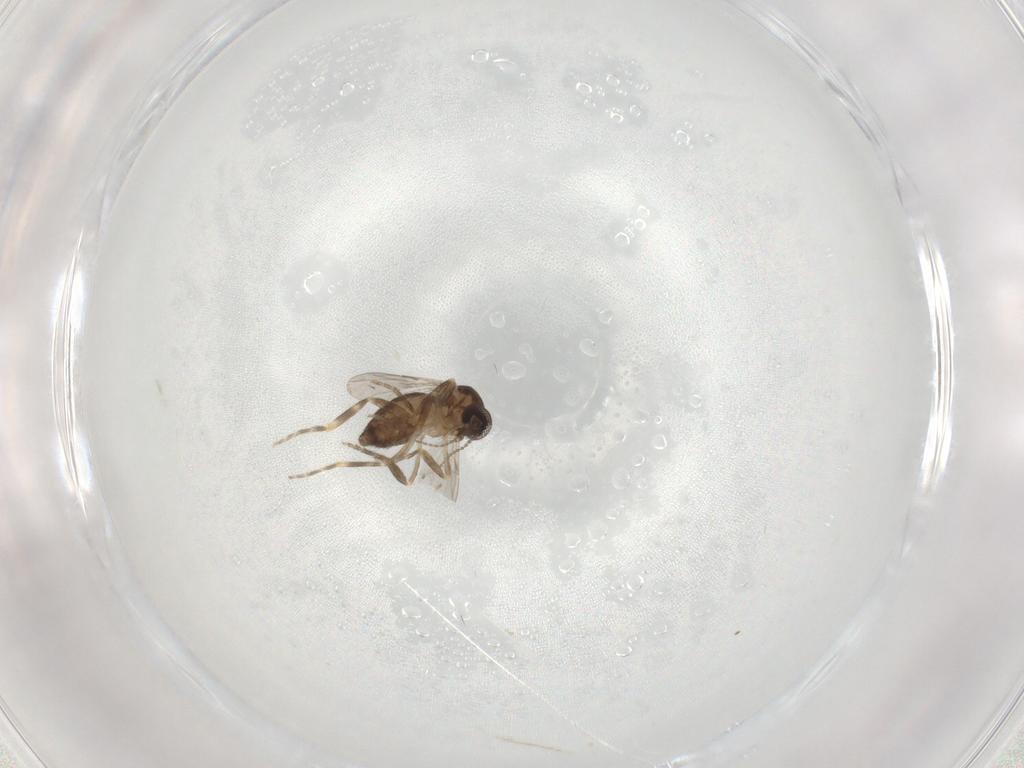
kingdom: Animalia
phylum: Arthropoda
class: Insecta
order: Diptera
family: Ceratopogonidae
